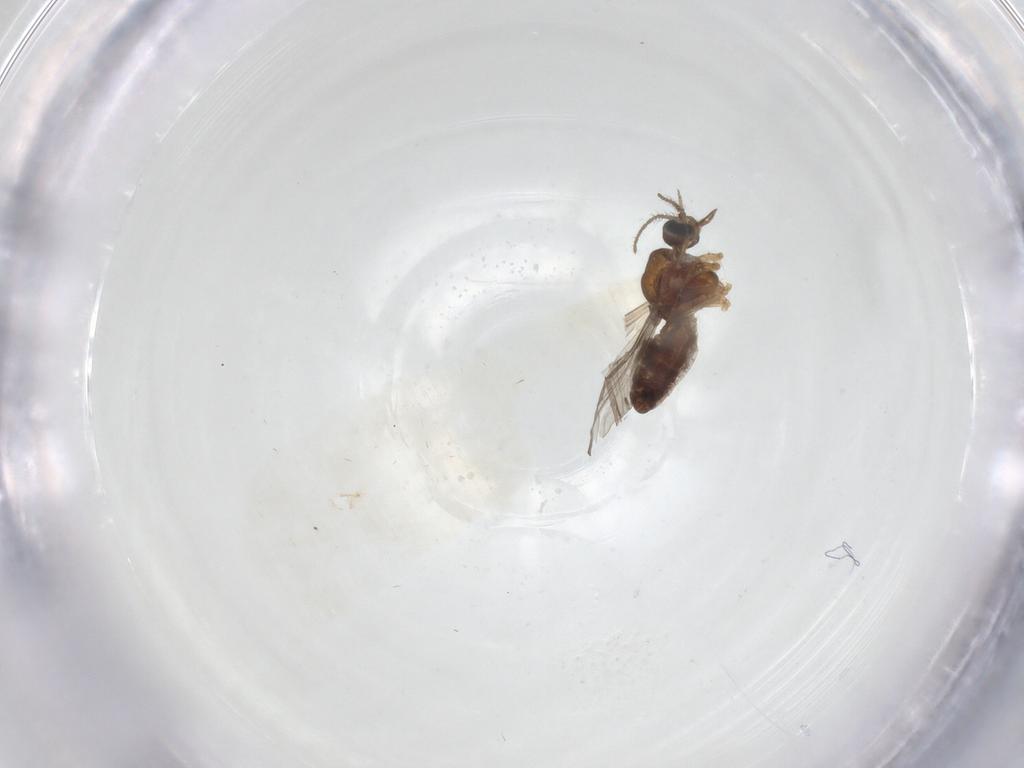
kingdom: Animalia
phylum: Arthropoda
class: Insecta
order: Diptera
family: Ceratopogonidae
